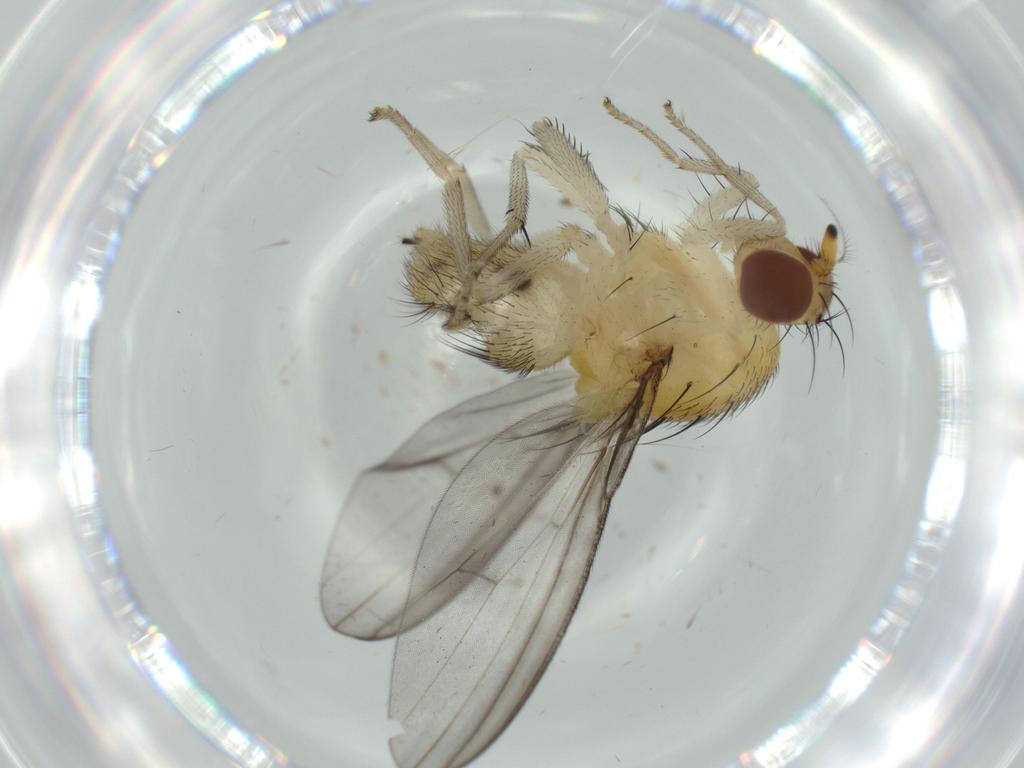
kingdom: Animalia
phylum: Arthropoda
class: Insecta
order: Diptera
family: Lauxaniidae
